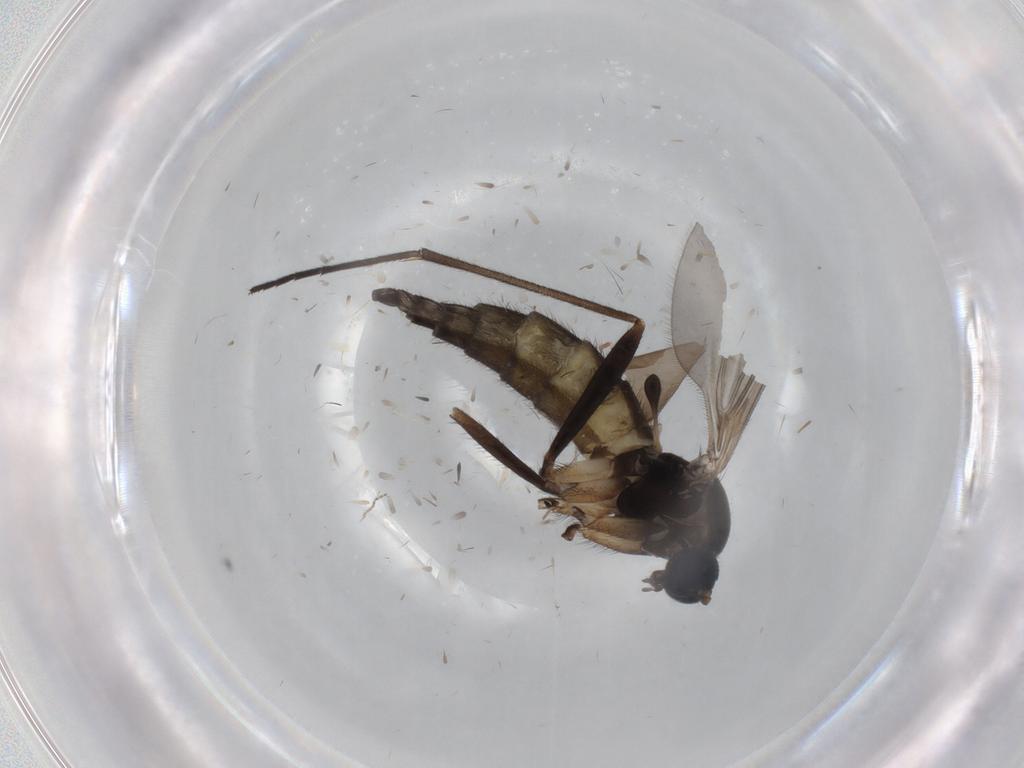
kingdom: Animalia
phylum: Arthropoda
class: Insecta
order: Diptera
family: Sciaridae
